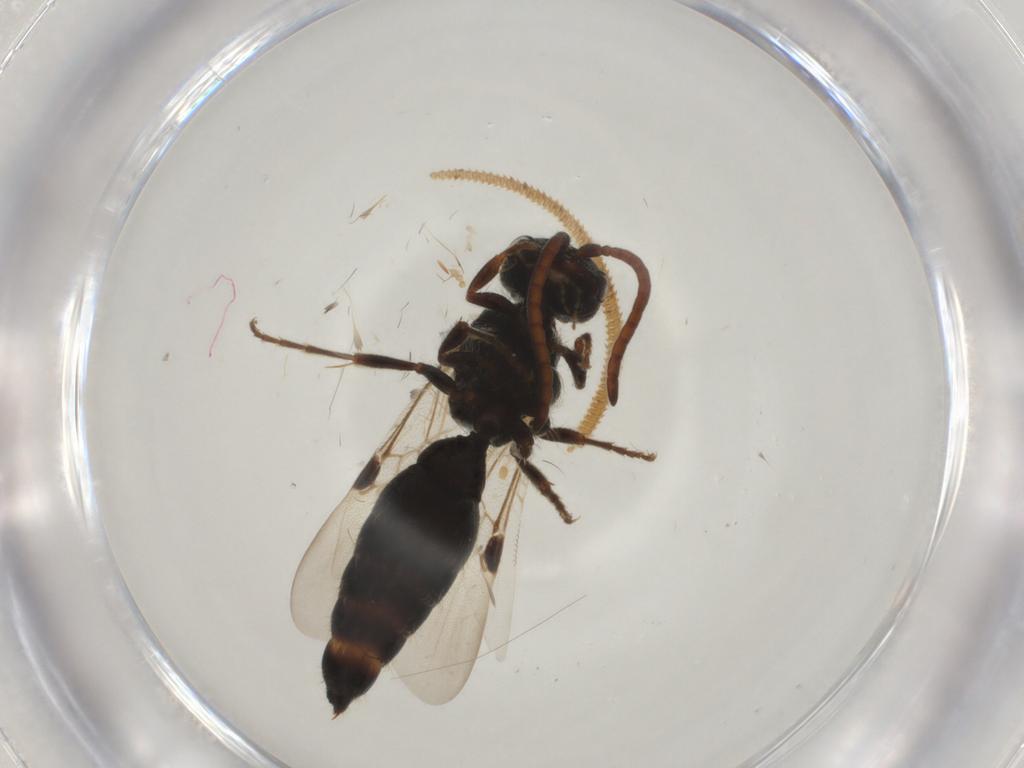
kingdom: Animalia
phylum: Arthropoda
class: Insecta
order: Hymenoptera
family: Tiphiidae
